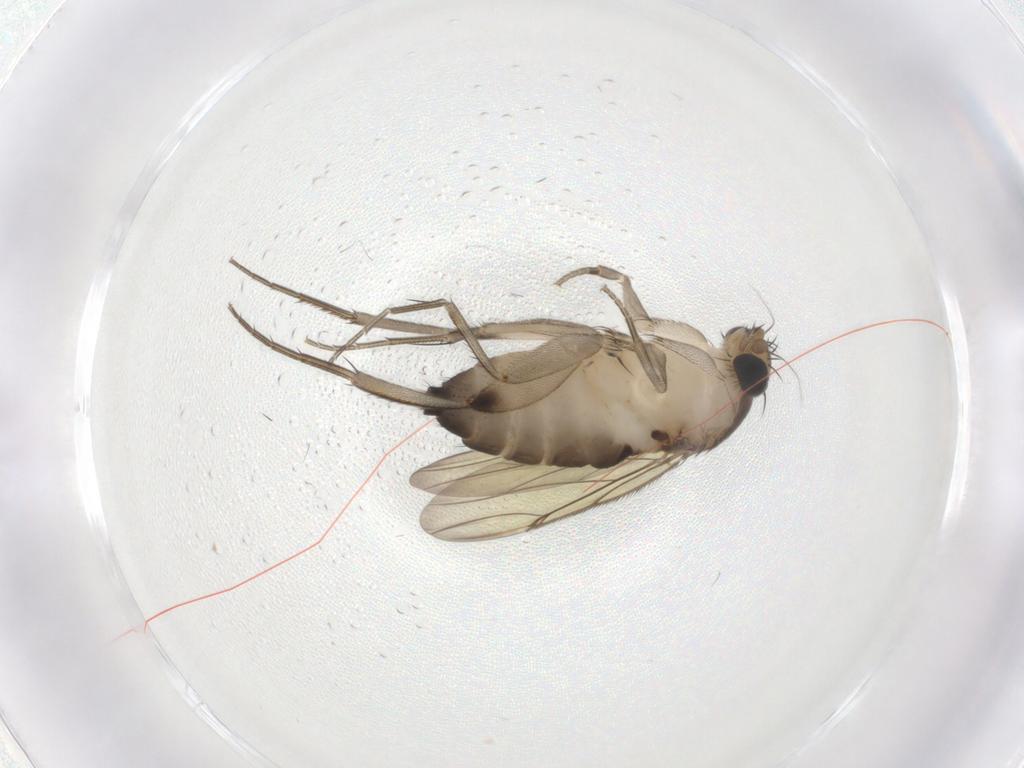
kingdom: Animalia
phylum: Arthropoda
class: Insecta
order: Diptera
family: Phoridae
